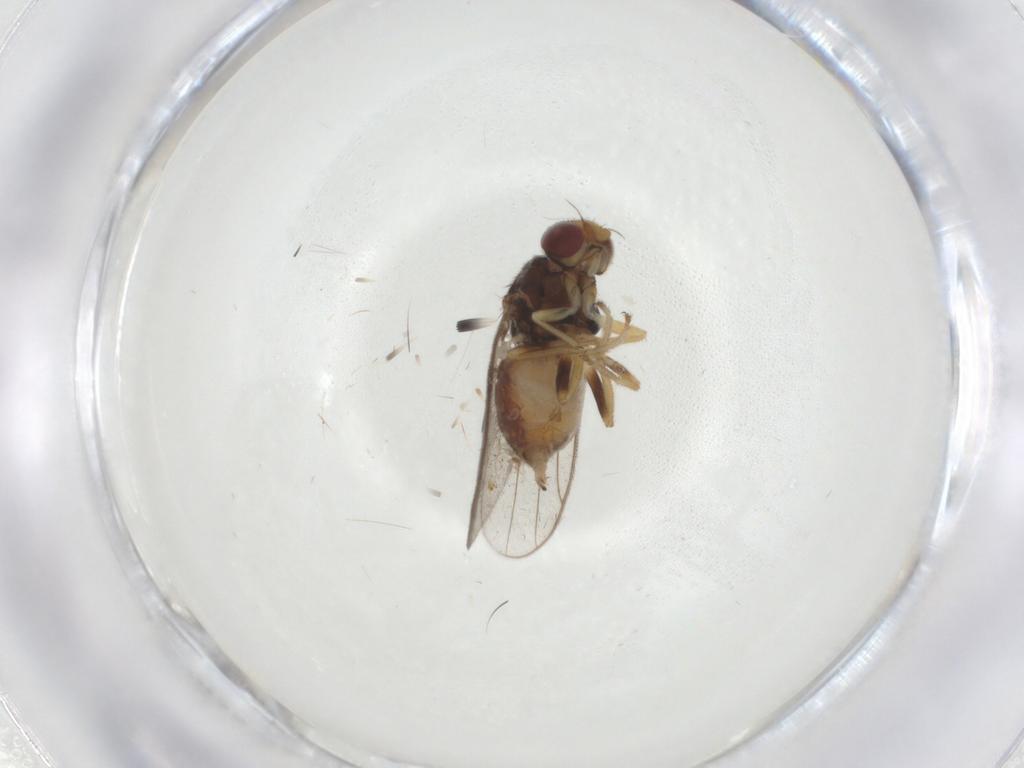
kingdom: Animalia
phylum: Arthropoda
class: Insecta
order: Diptera
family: Chloropidae
